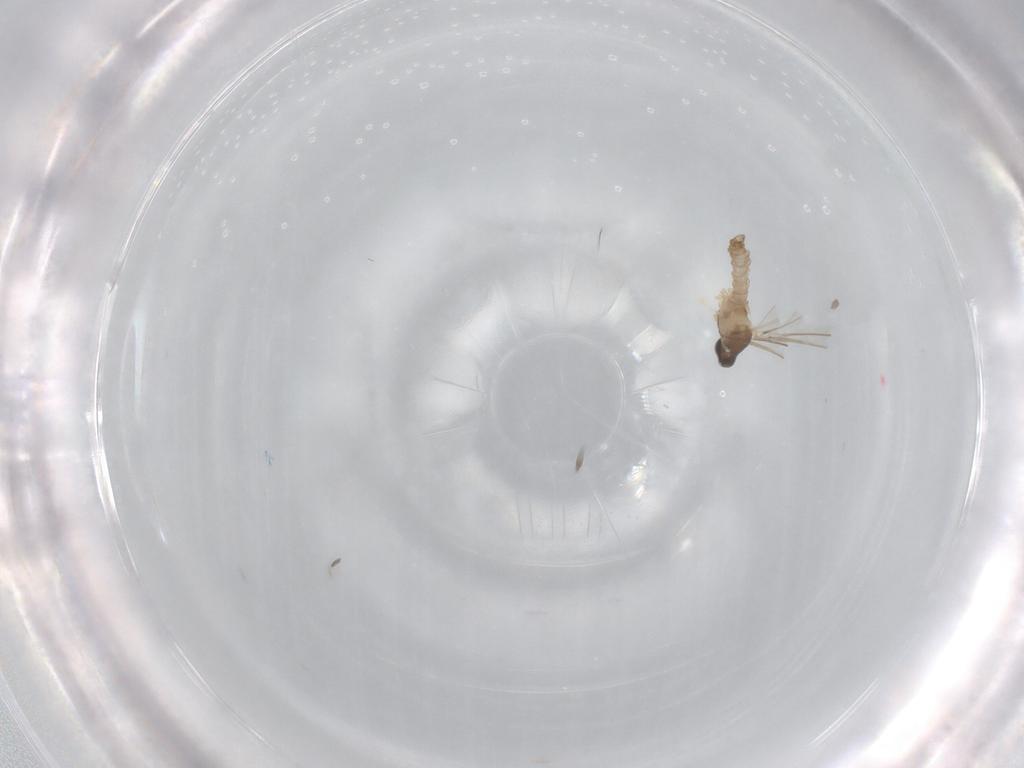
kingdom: Animalia
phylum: Arthropoda
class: Insecta
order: Diptera
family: Cecidomyiidae
